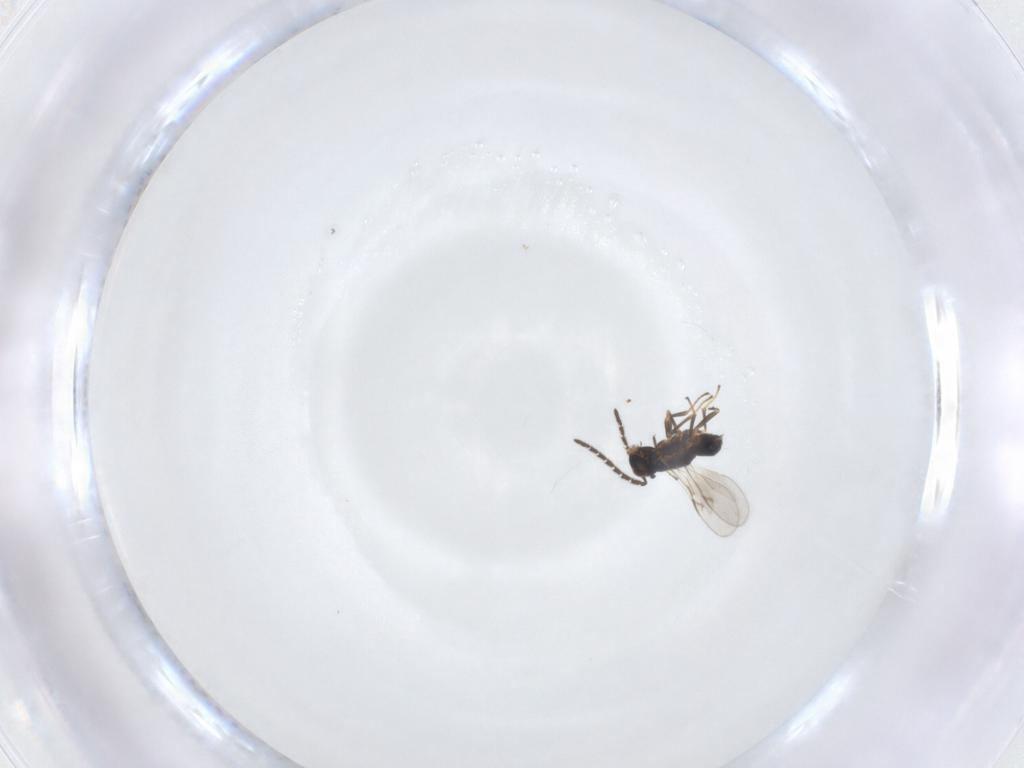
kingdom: Animalia
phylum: Arthropoda
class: Insecta
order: Hymenoptera
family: Encyrtidae
